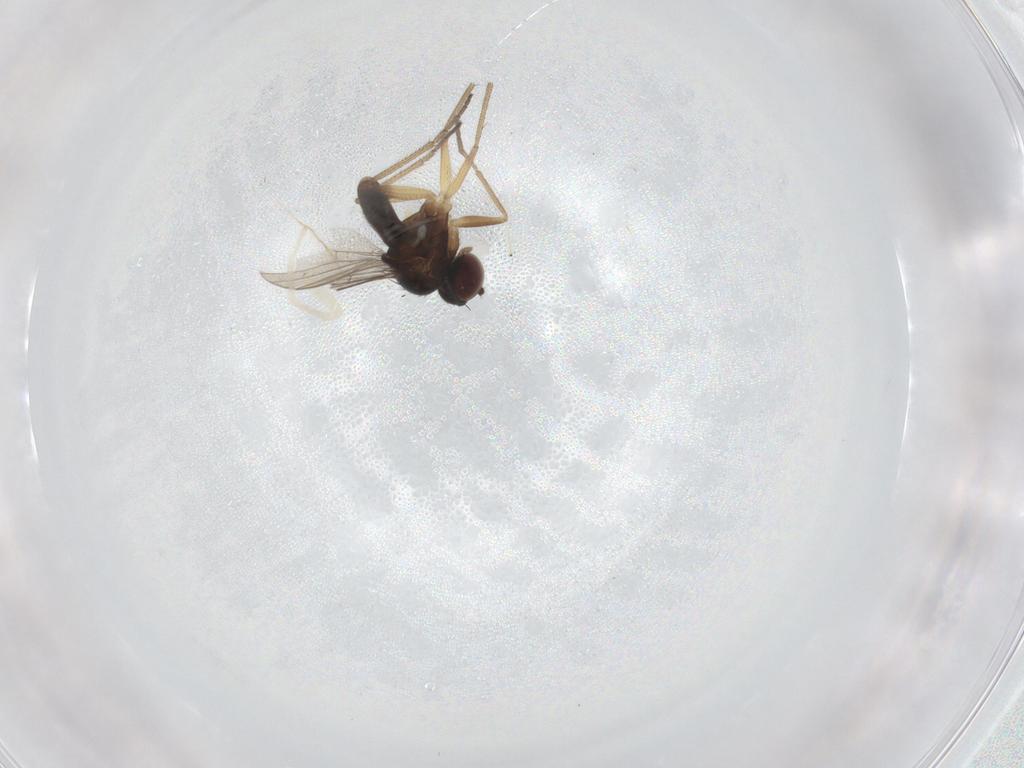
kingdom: Animalia
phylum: Arthropoda
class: Insecta
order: Diptera
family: Dolichopodidae
